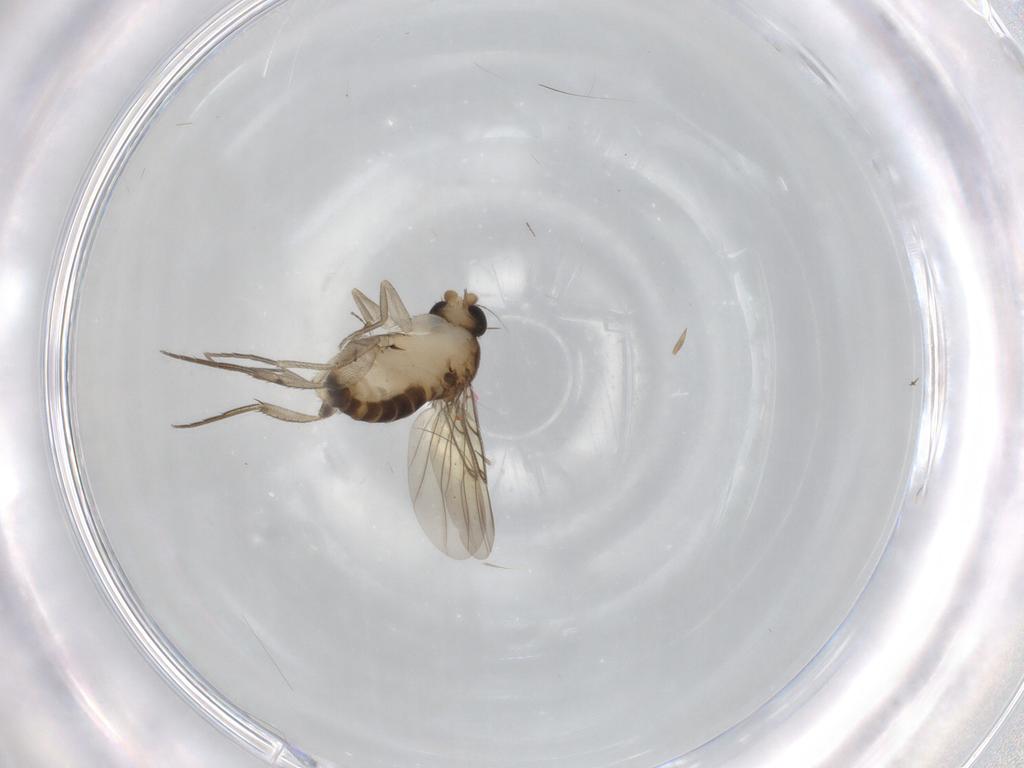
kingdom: Animalia
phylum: Arthropoda
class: Insecta
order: Diptera
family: Phoridae
